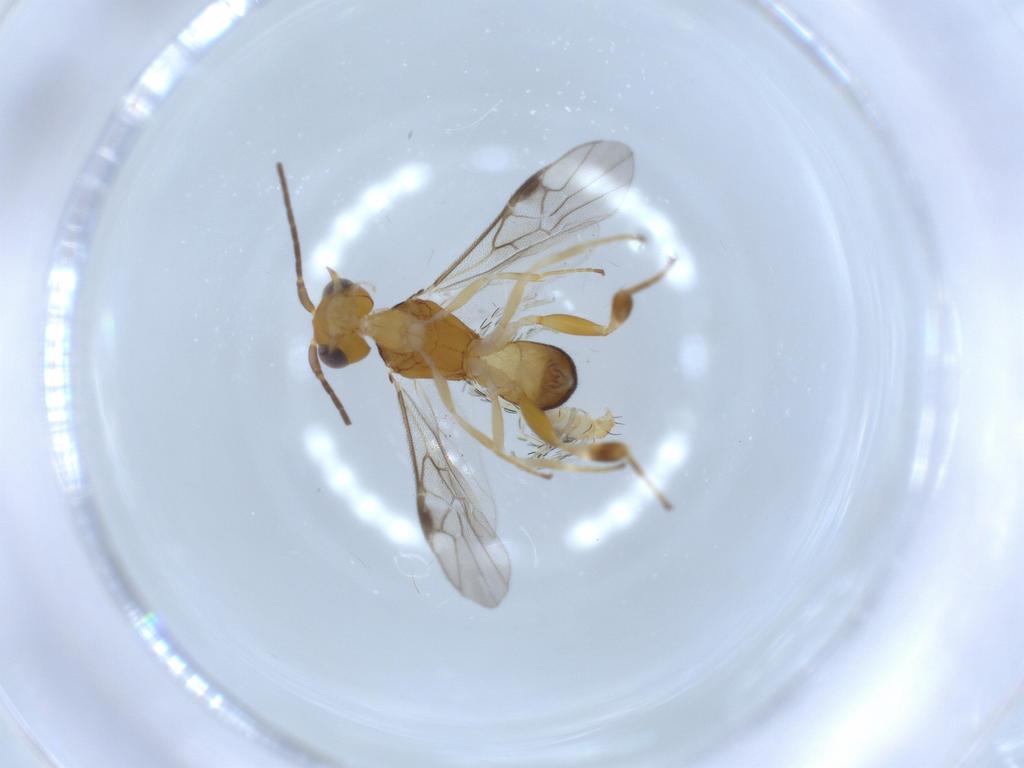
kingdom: Animalia
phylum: Arthropoda
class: Arachnida
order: Trombidiformes
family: Erythraeidae
